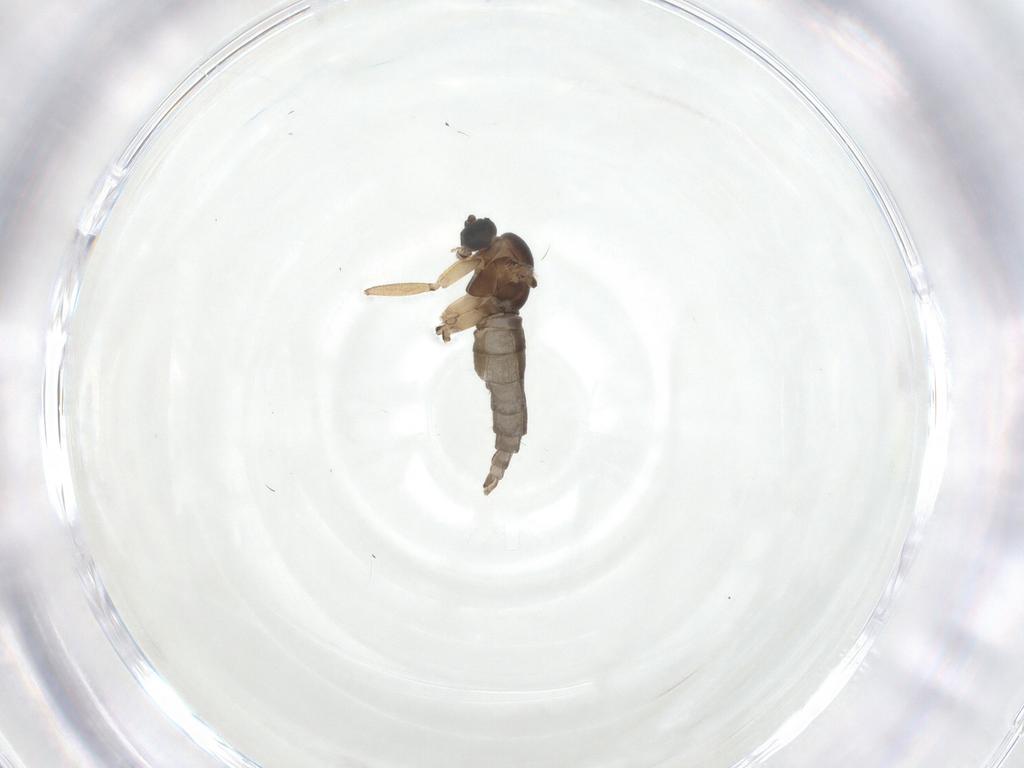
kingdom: Animalia
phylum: Arthropoda
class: Insecta
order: Diptera
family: Sciaridae
